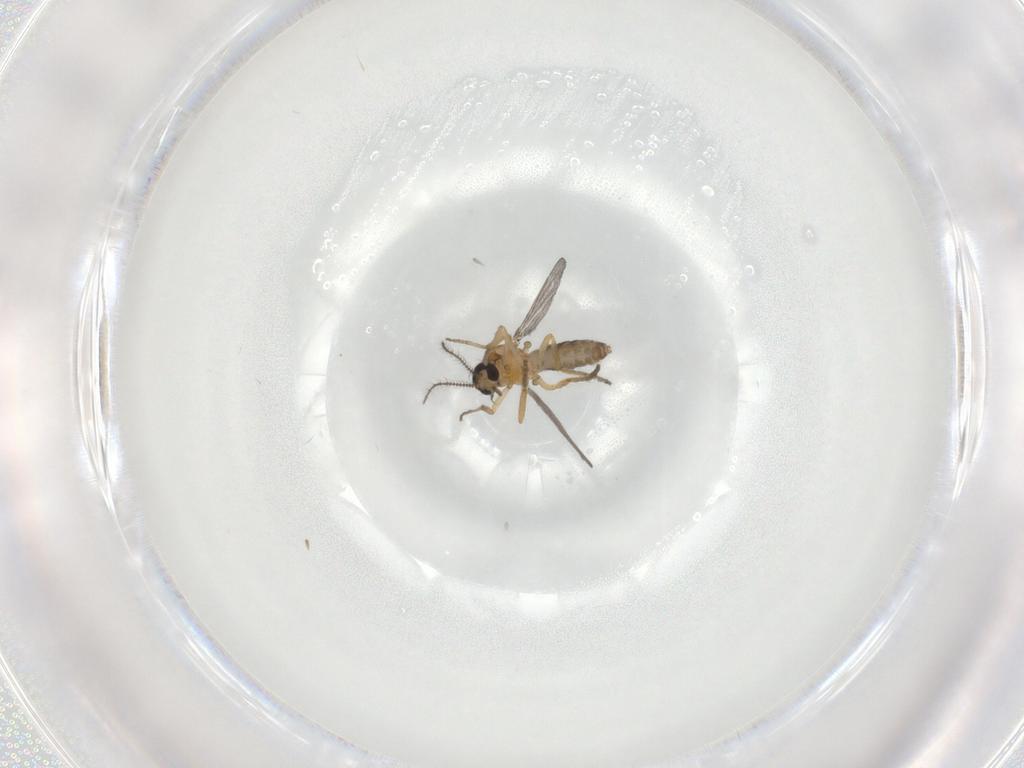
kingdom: Animalia
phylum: Arthropoda
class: Insecta
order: Diptera
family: Ceratopogonidae
